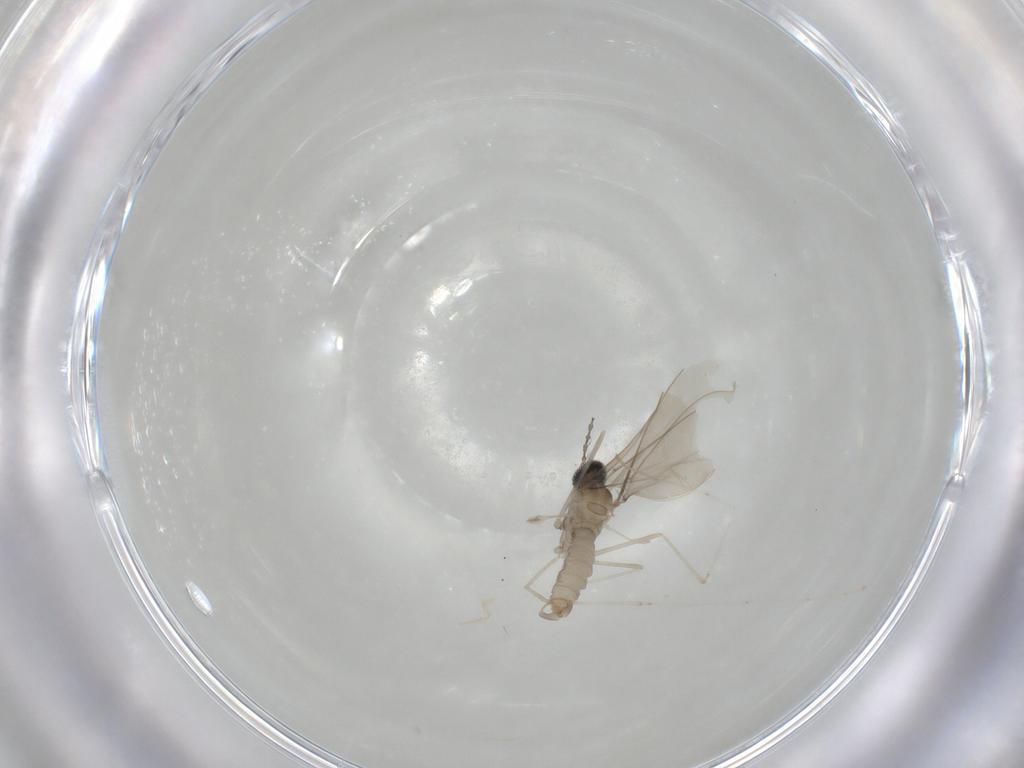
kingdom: Animalia
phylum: Arthropoda
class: Insecta
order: Diptera
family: Cecidomyiidae
